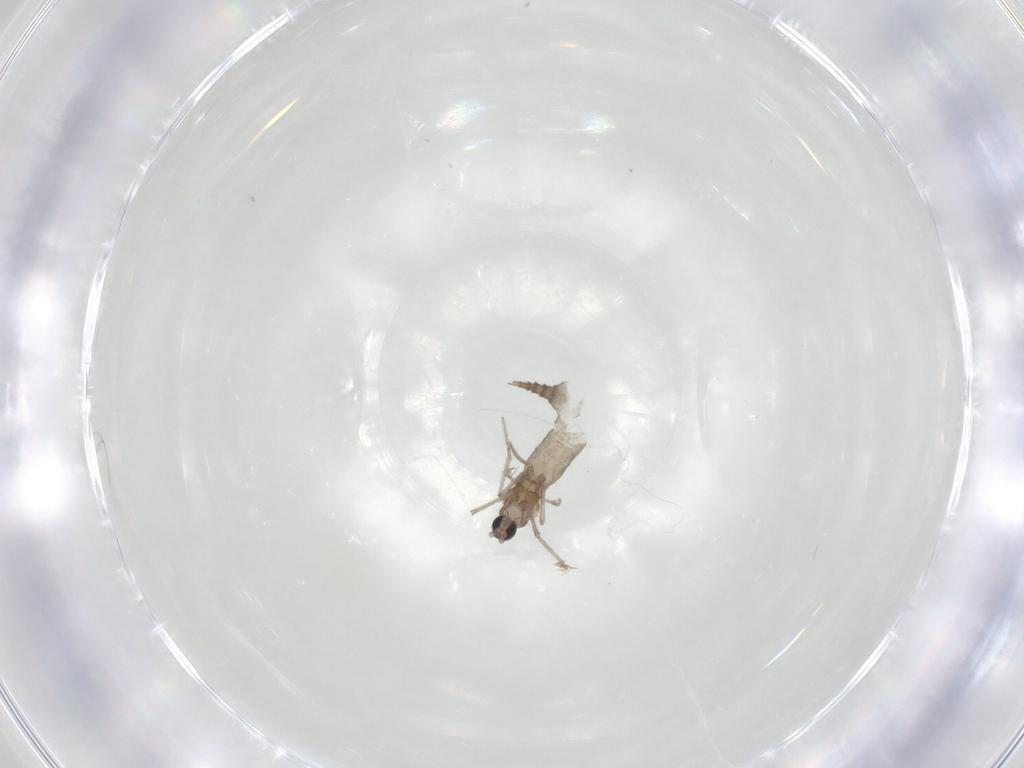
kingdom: Animalia
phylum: Arthropoda
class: Insecta
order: Diptera
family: Cecidomyiidae
